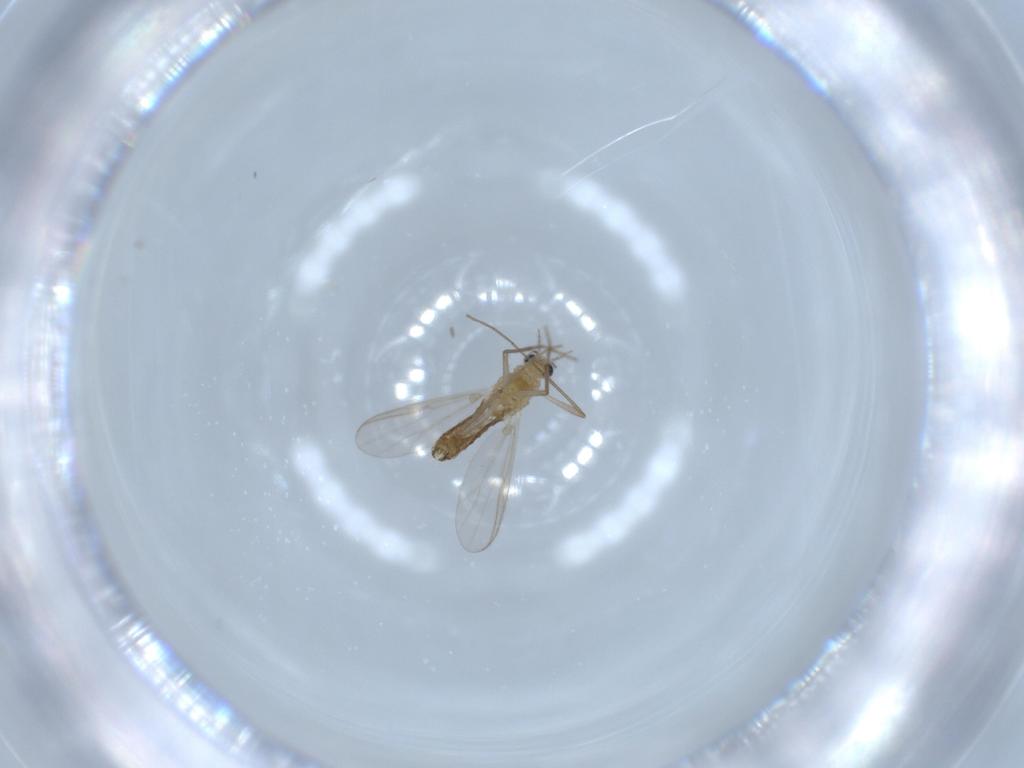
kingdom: Animalia
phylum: Arthropoda
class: Insecta
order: Diptera
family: Chironomidae
